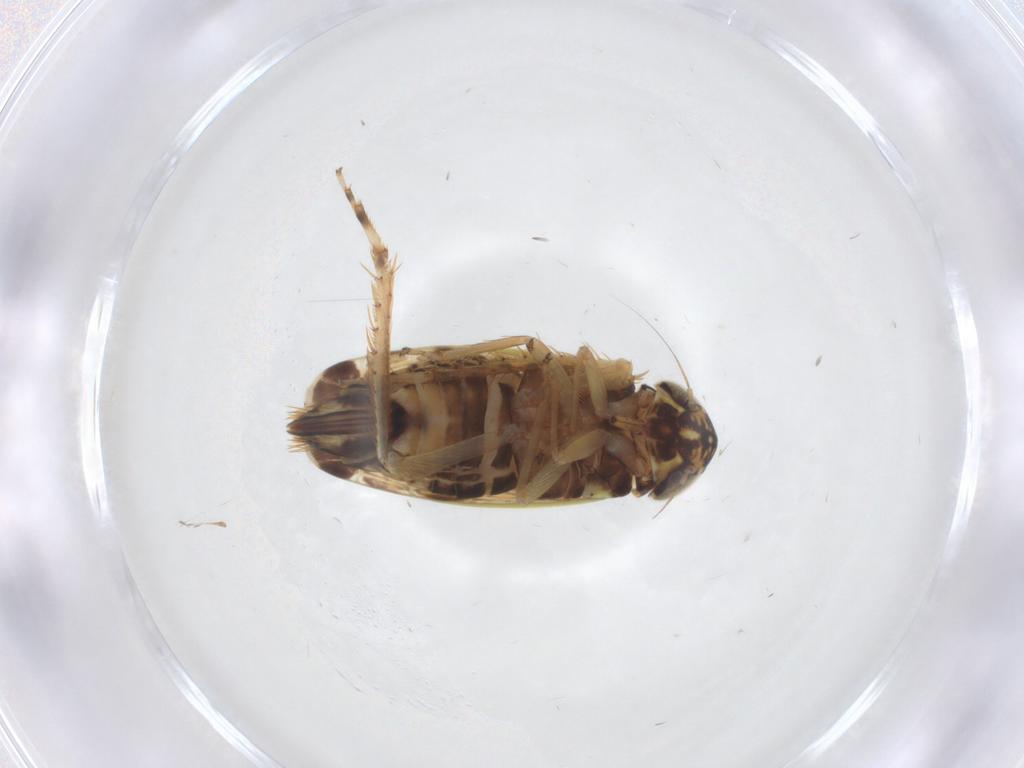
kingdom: Animalia
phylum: Arthropoda
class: Insecta
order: Hemiptera
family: Cicadellidae
